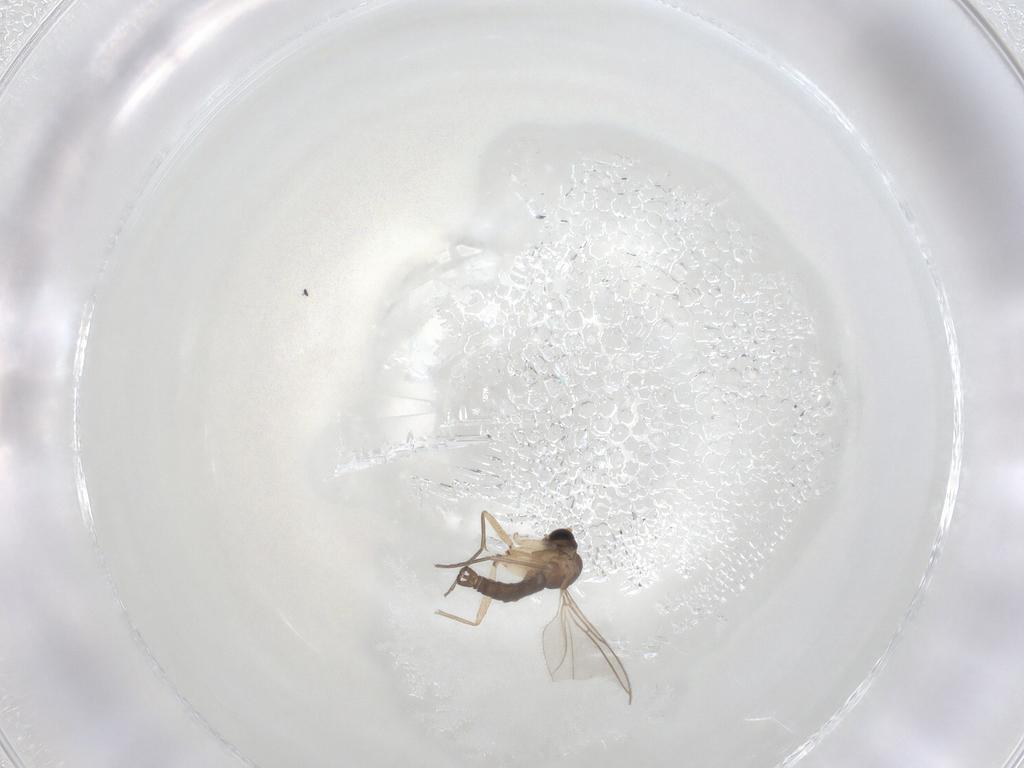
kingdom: Animalia
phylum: Arthropoda
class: Insecta
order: Diptera
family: Sciaridae
